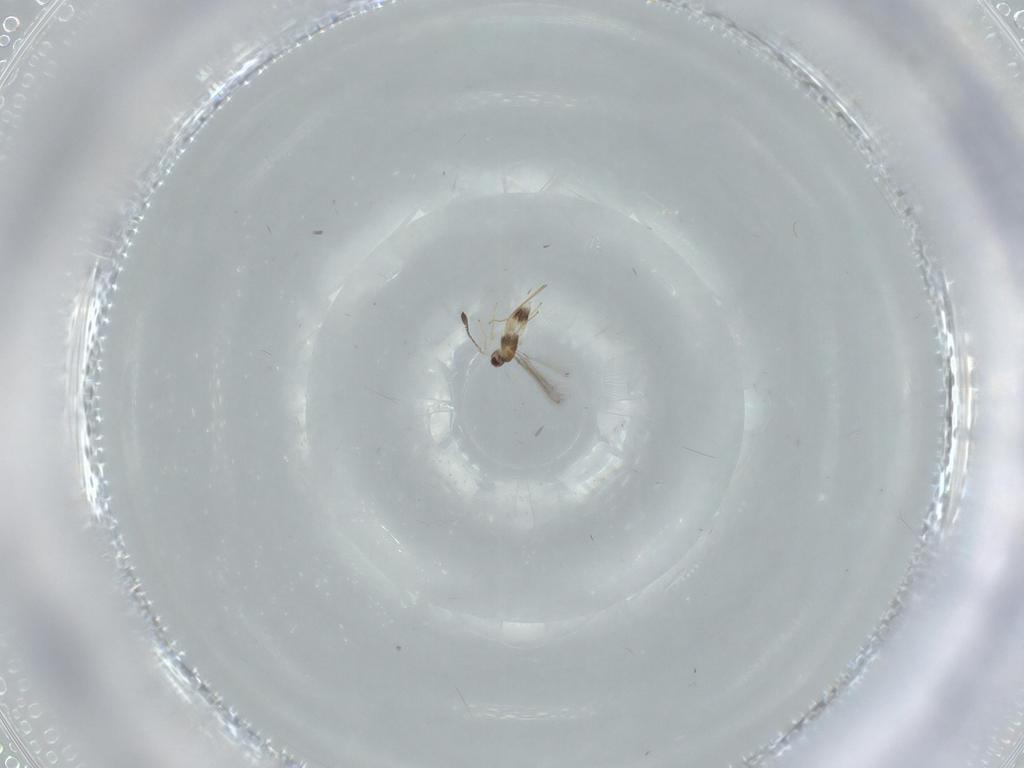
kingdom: Animalia
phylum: Arthropoda
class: Insecta
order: Hymenoptera
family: Mymaridae
